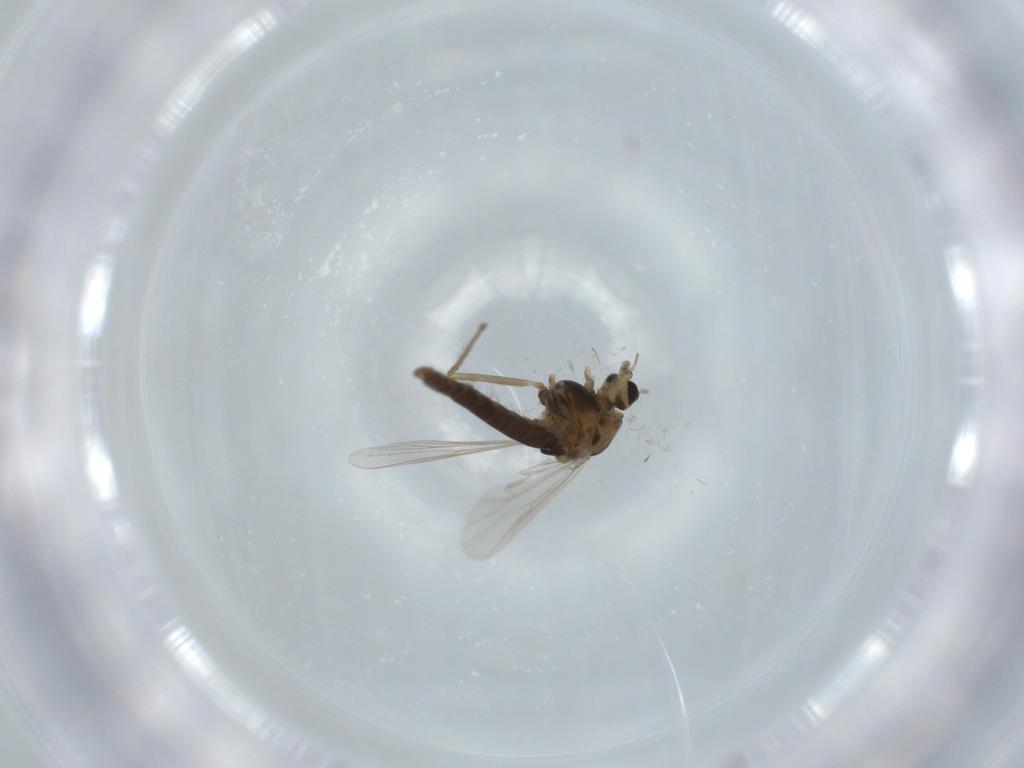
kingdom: Animalia
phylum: Arthropoda
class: Insecta
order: Diptera
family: Chironomidae
